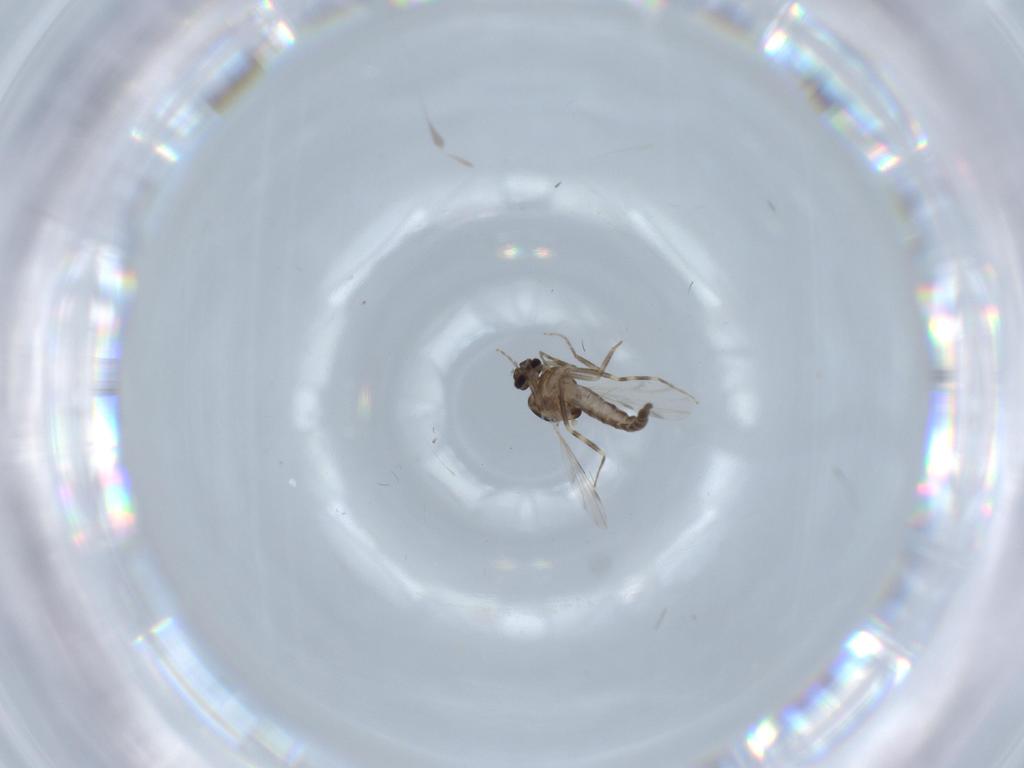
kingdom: Animalia
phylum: Arthropoda
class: Insecta
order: Diptera
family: Ceratopogonidae
